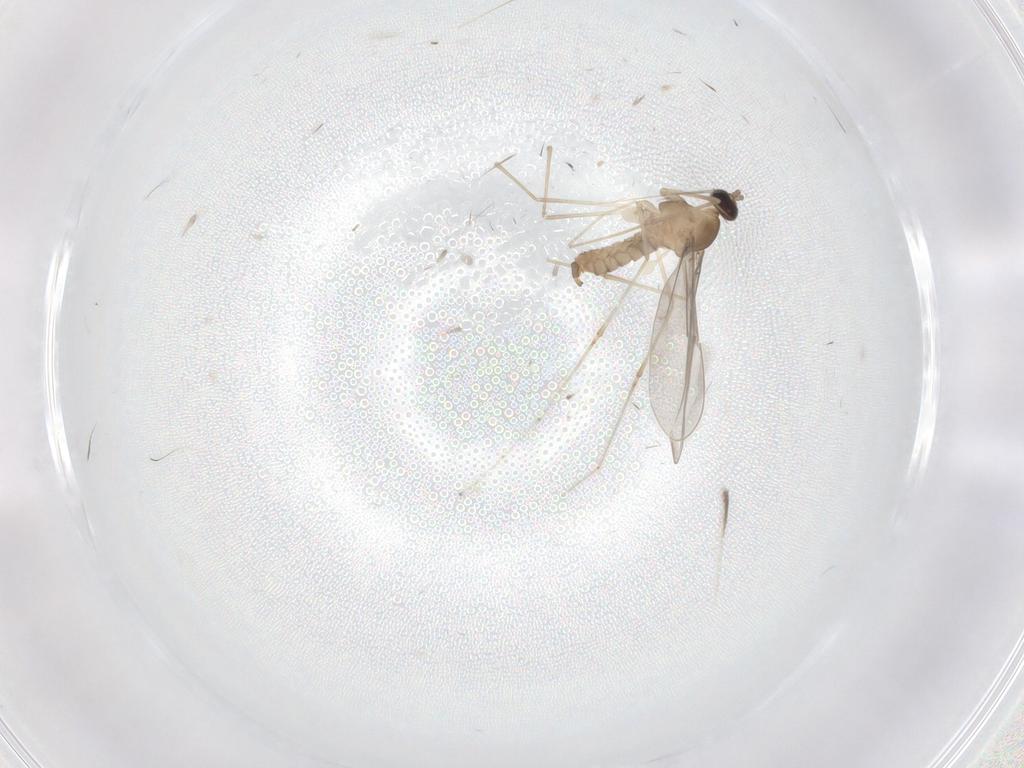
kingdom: Animalia
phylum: Arthropoda
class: Insecta
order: Diptera
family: Cecidomyiidae
